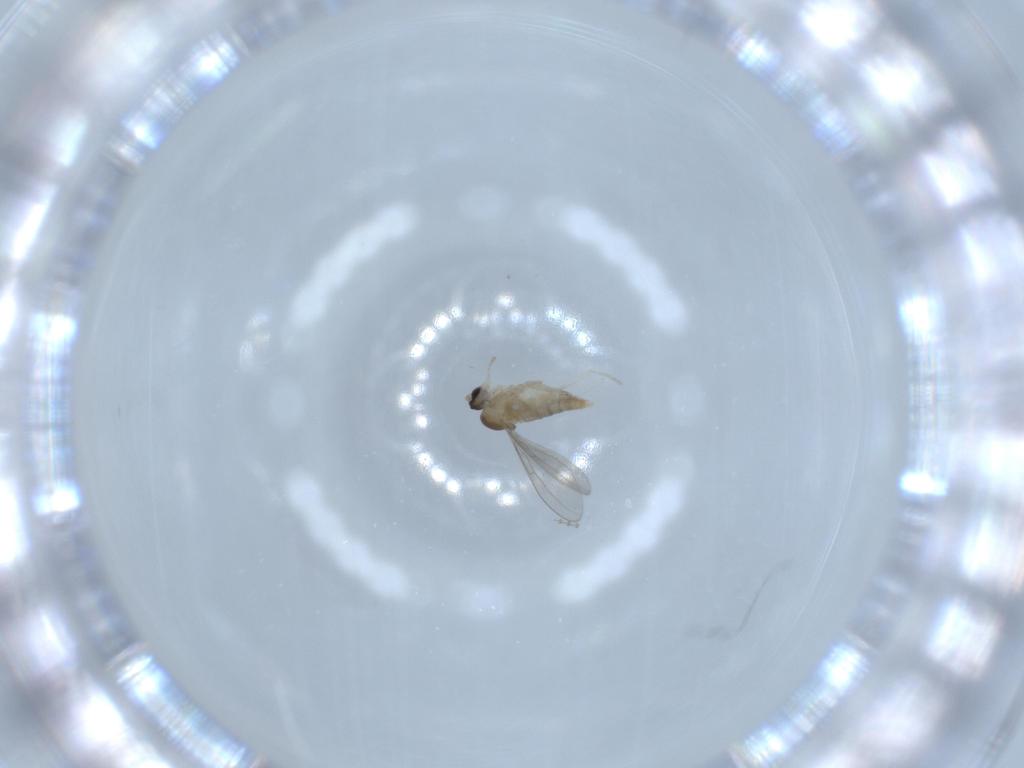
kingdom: Animalia
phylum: Arthropoda
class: Insecta
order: Diptera
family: Cecidomyiidae
